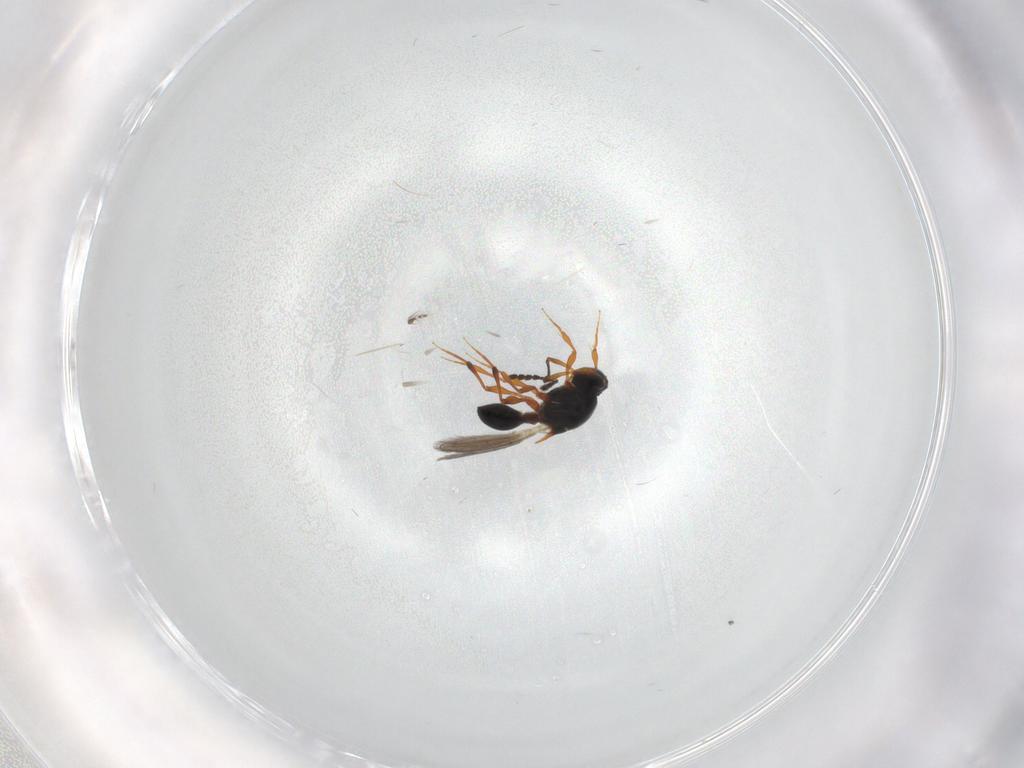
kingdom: Animalia
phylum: Arthropoda
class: Insecta
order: Hymenoptera
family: Platygastridae
